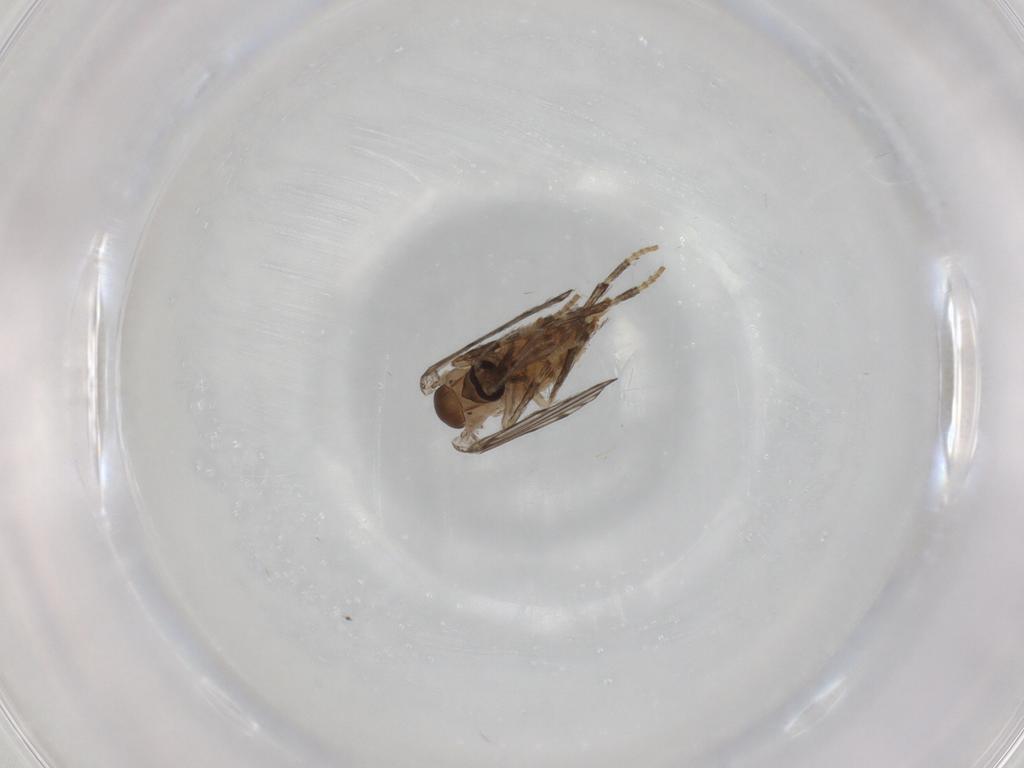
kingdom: Animalia
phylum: Arthropoda
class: Insecta
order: Diptera
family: Psychodidae
